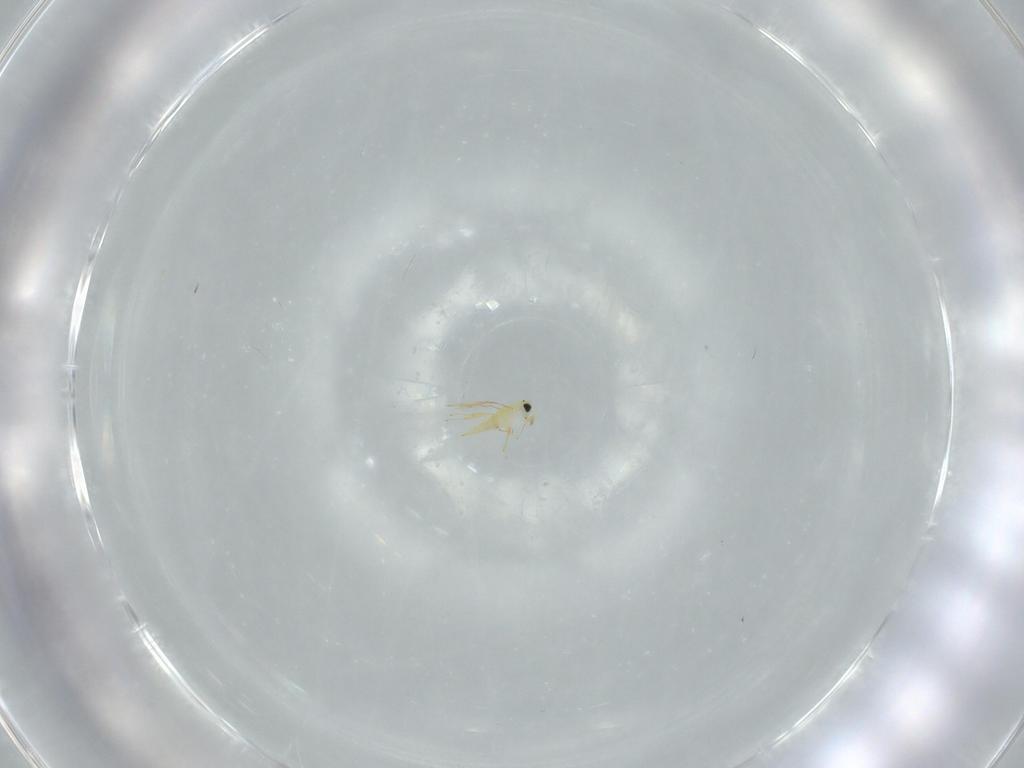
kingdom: Animalia
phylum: Arthropoda
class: Insecta
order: Hymenoptera
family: Trichogrammatidae
